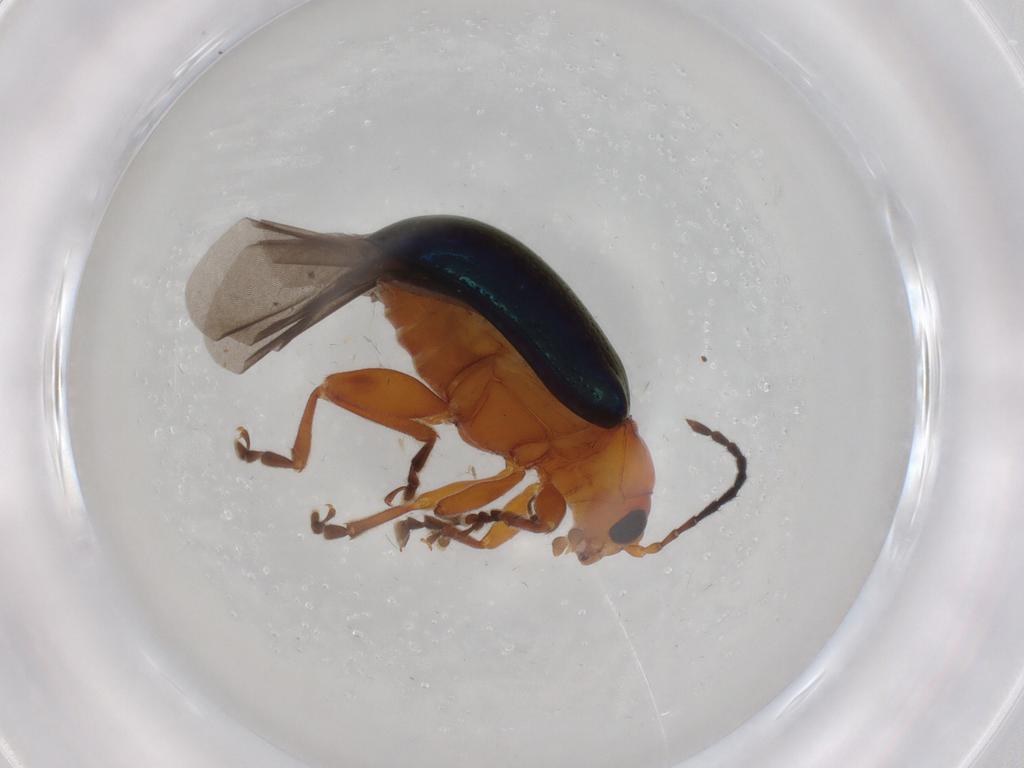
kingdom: Animalia
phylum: Arthropoda
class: Insecta
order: Coleoptera
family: Chrysomelidae
